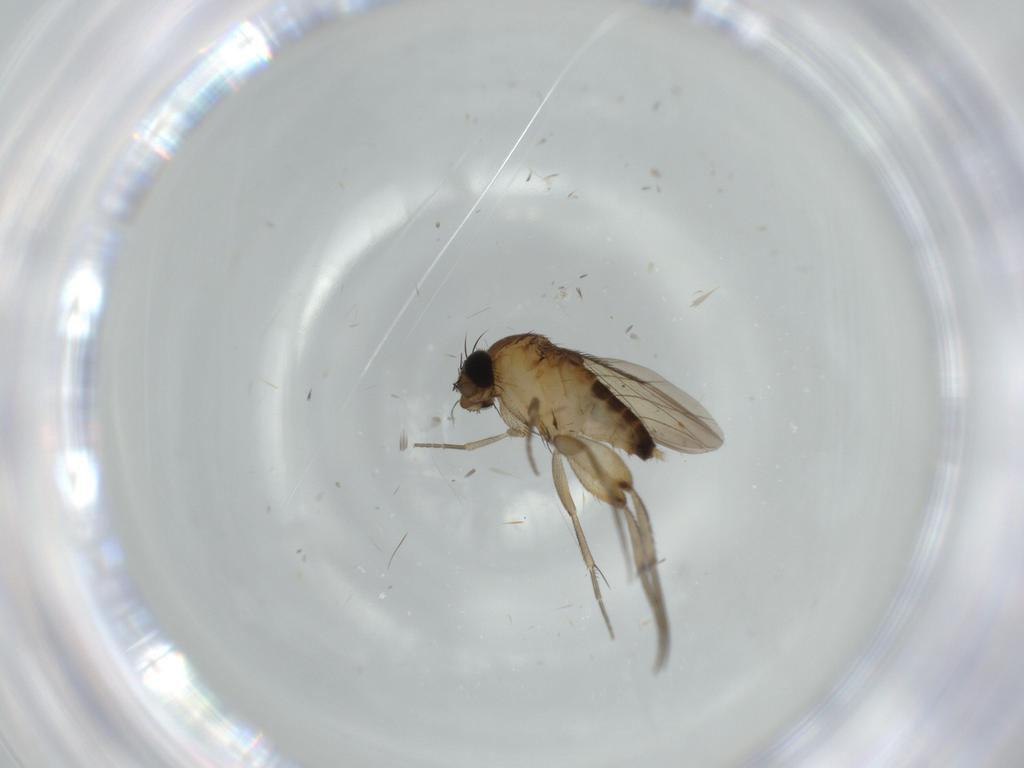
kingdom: Animalia
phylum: Arthropoda
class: Insecta
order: Diptera
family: Phoridae
